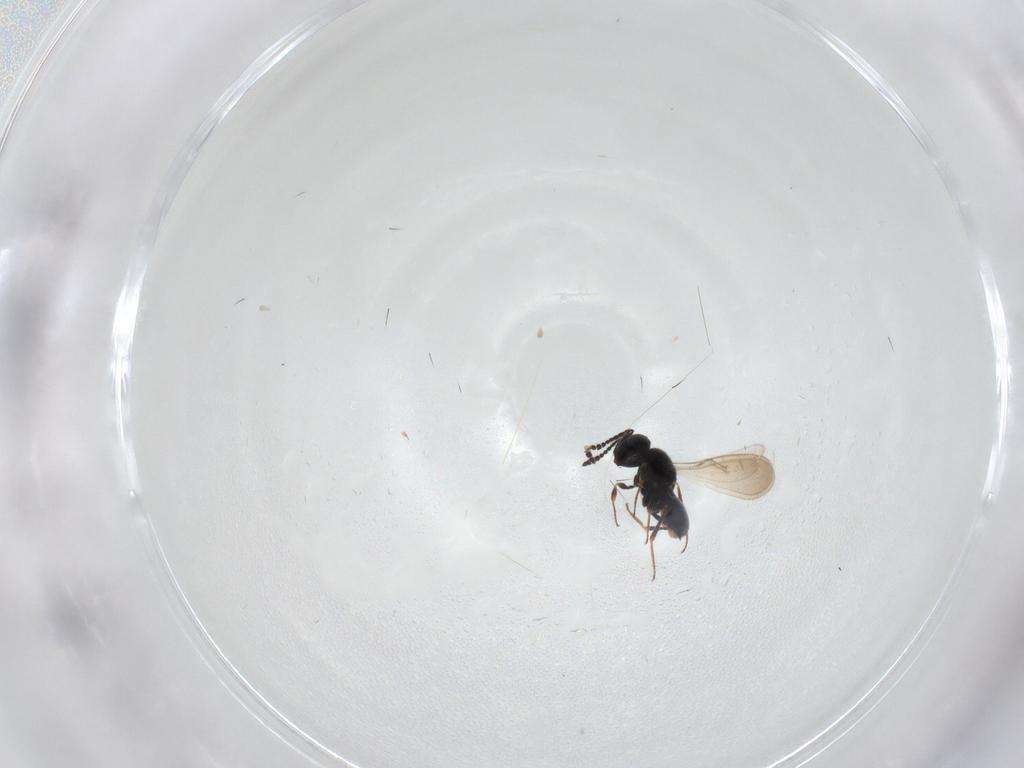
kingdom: Animalia
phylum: Arthropoda
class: Insecta
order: Hymenoptera
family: Scelionidae
